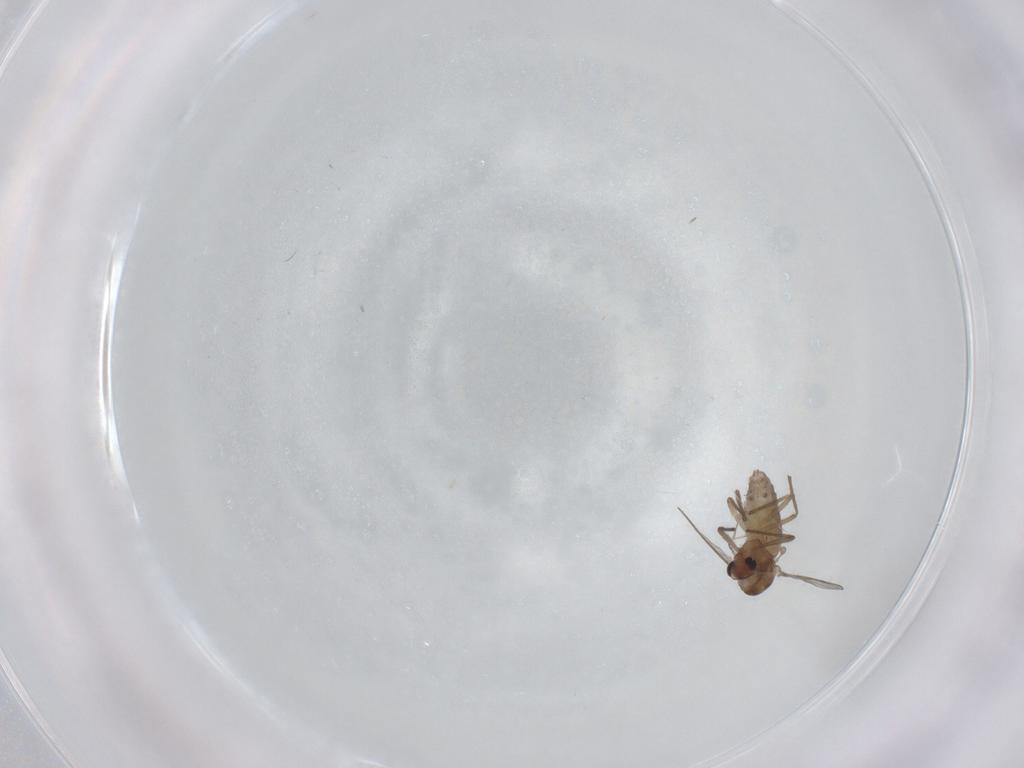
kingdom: Animalia
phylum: Arthropoda
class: Insecta
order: Diptera
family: Chironomidae
